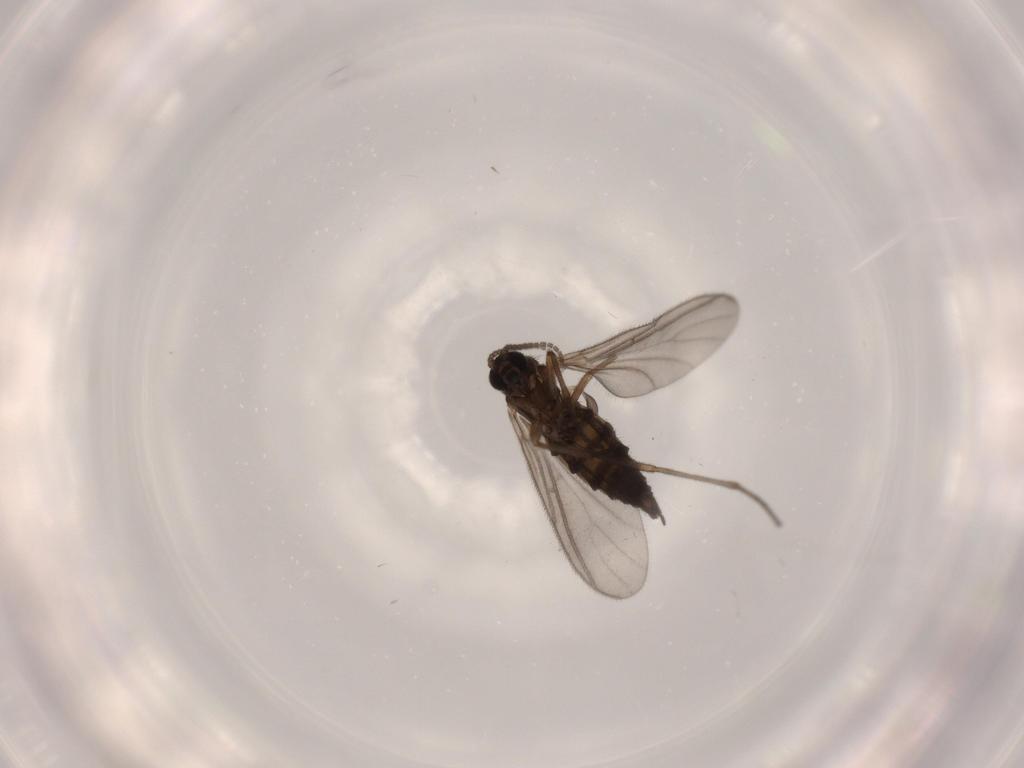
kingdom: Animalia
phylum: Arthropoda
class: Insecta
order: Diptera
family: Sciaridae
